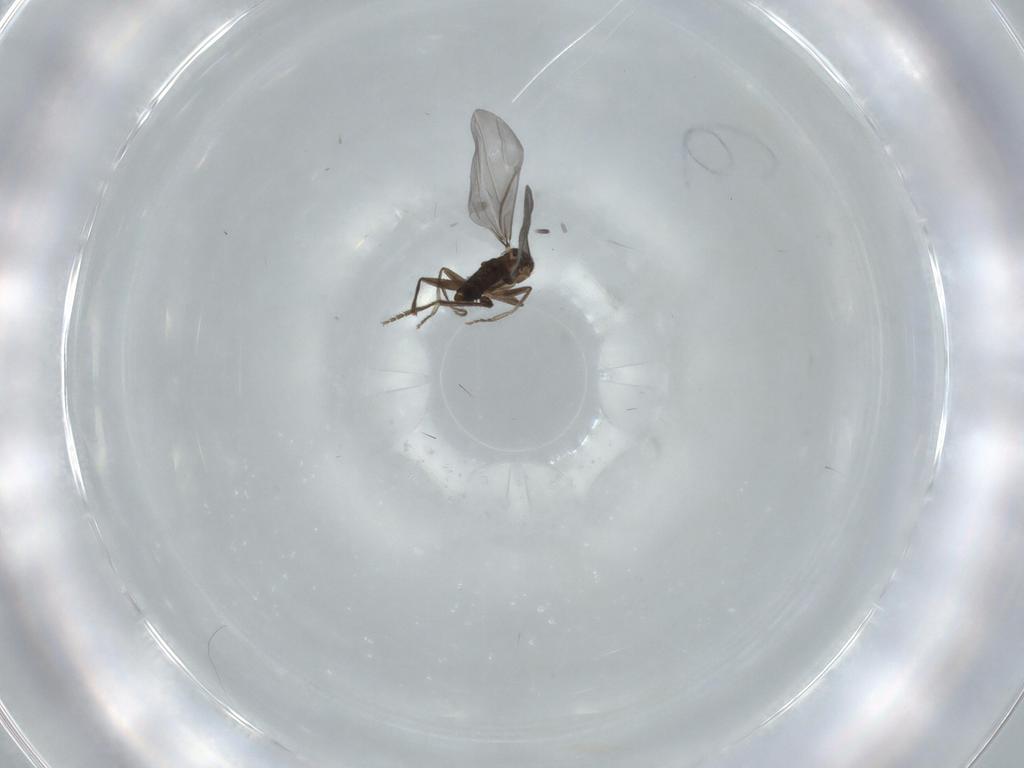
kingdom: Animalia
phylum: Arthropoda
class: Insecta
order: Diptera
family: Phoridae
